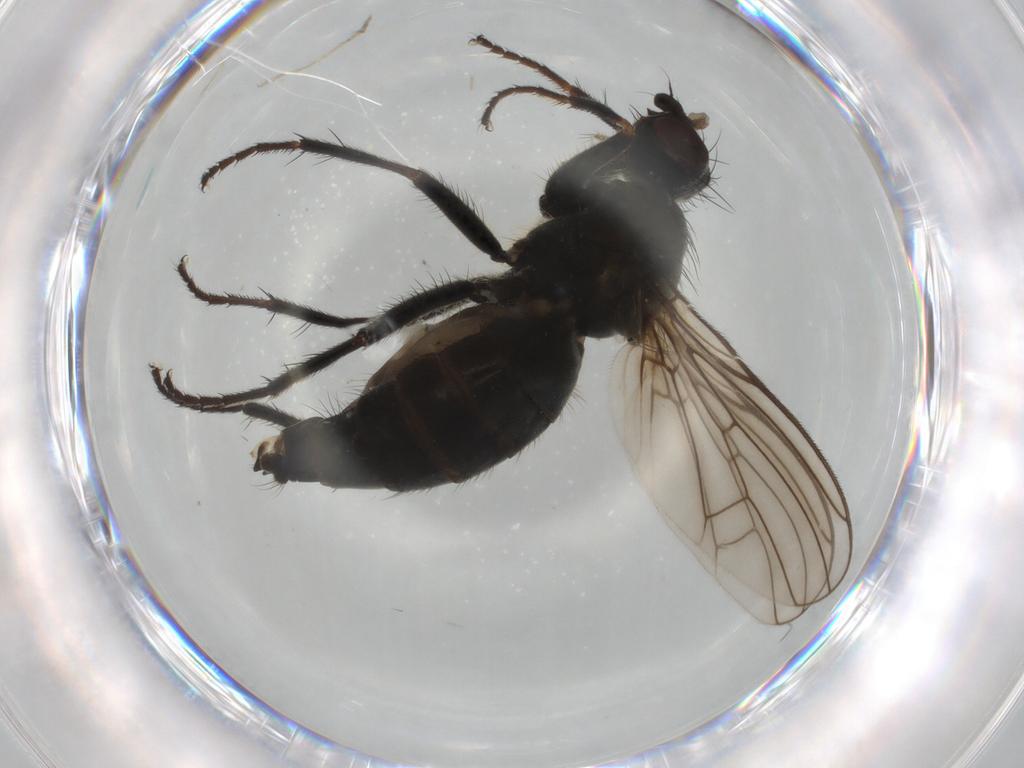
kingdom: Animalia
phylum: Arthropoda
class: Insecta
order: Diptera
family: Scathophagidae
